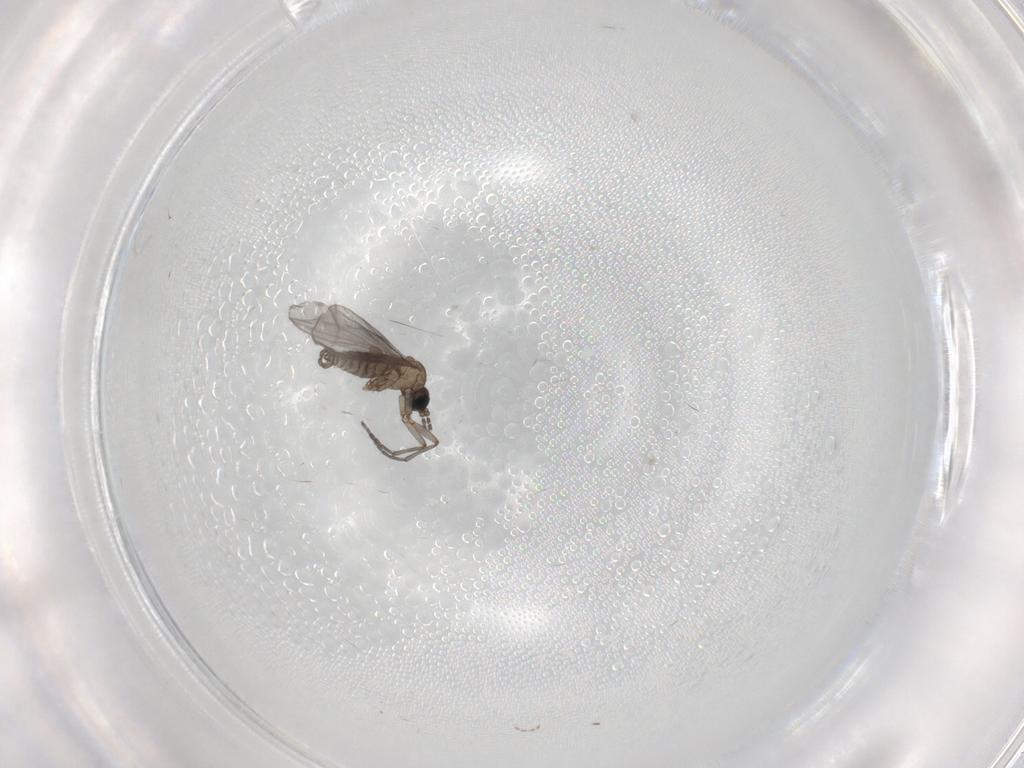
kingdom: Animalia
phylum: Arthropoda
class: Insecta
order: Diptera
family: Sciaridae
